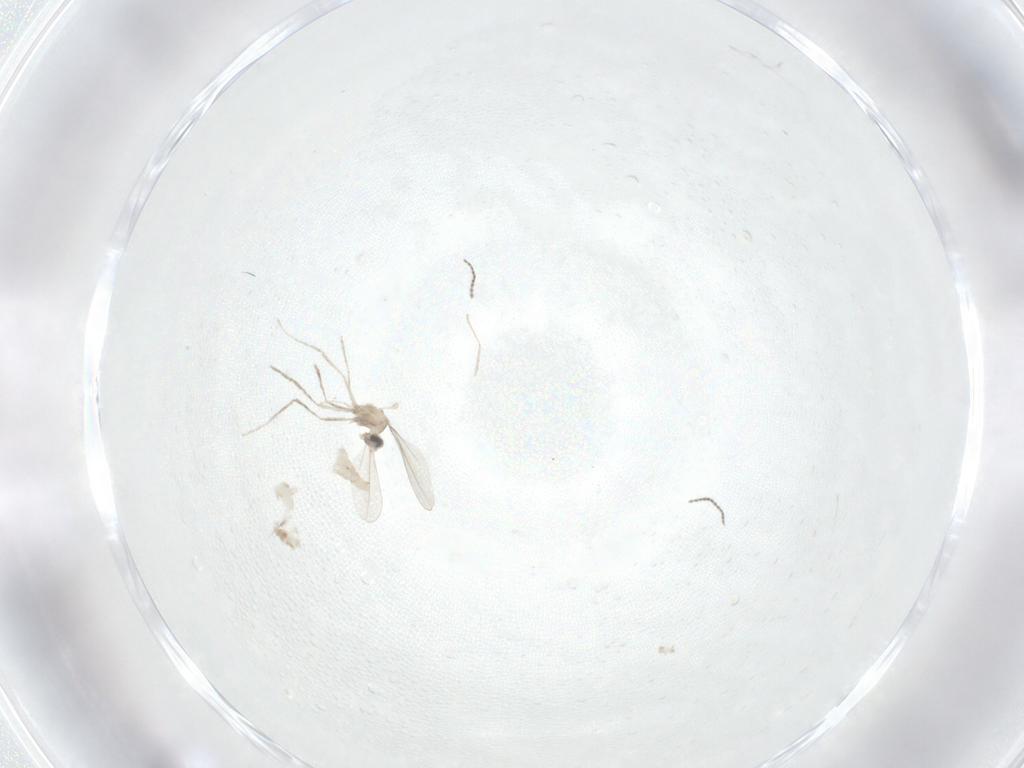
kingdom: Animalia
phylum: Arthropoda
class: Insecta
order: Diptera
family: Cecidomyiidae
